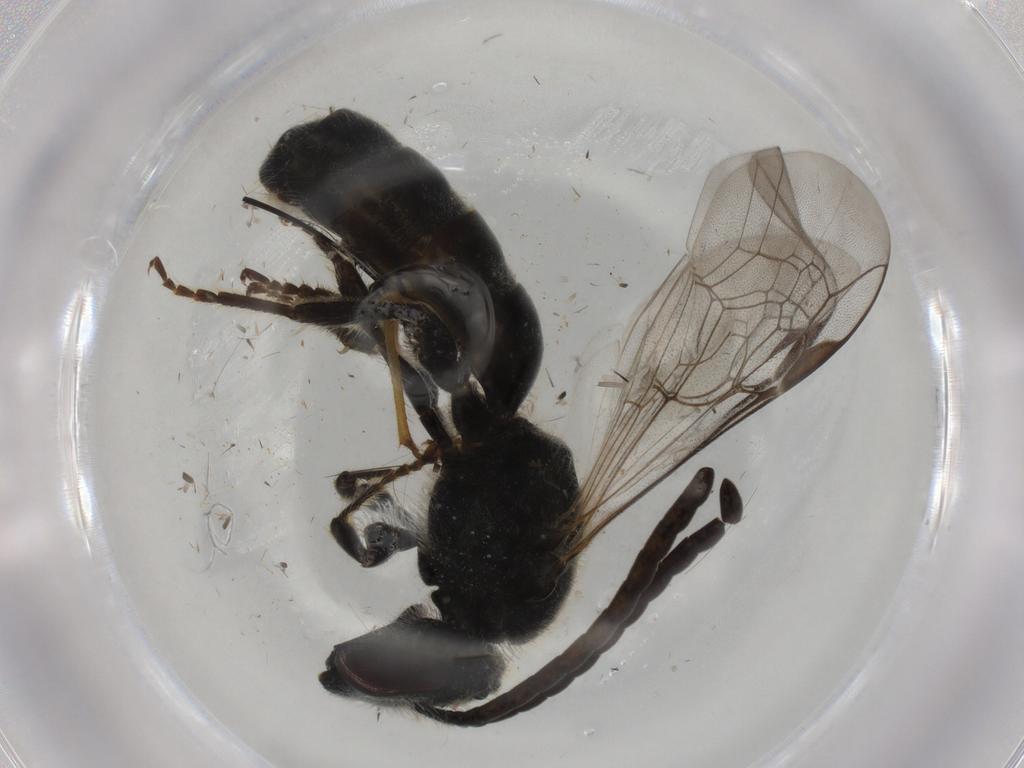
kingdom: Animalia
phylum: Arthropoda
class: Insecta
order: Hymenoptera
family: Halictidae
